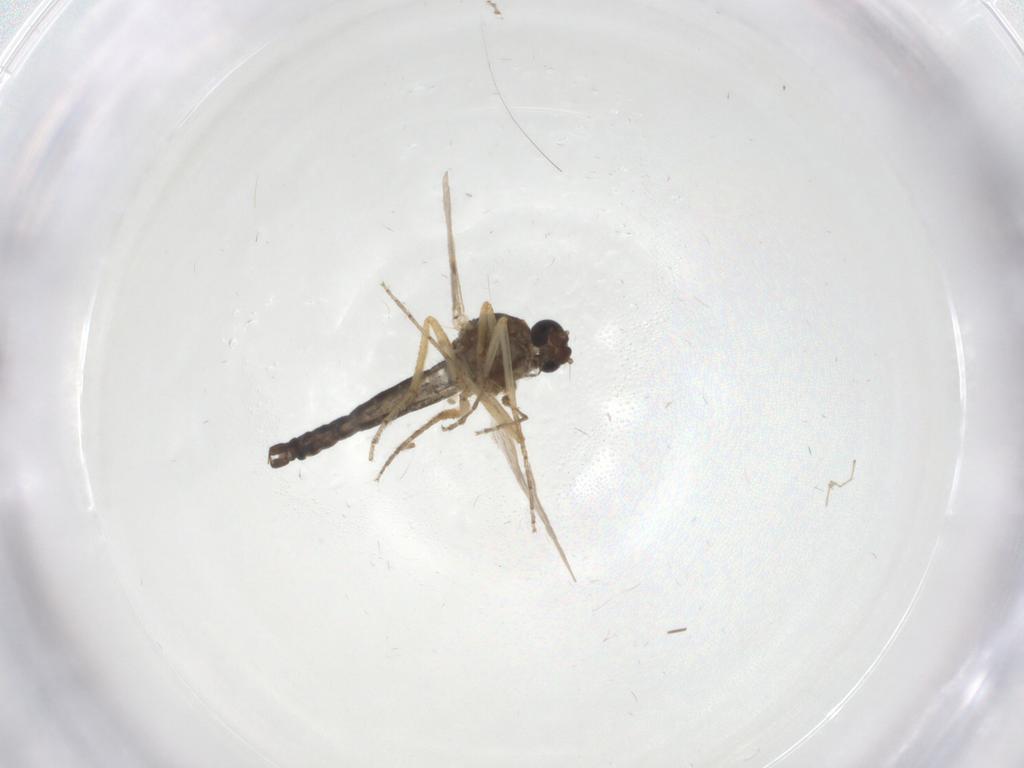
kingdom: Animalia
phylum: Arthropoda
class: Insecta
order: Diptera
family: Ceratopogonidae
